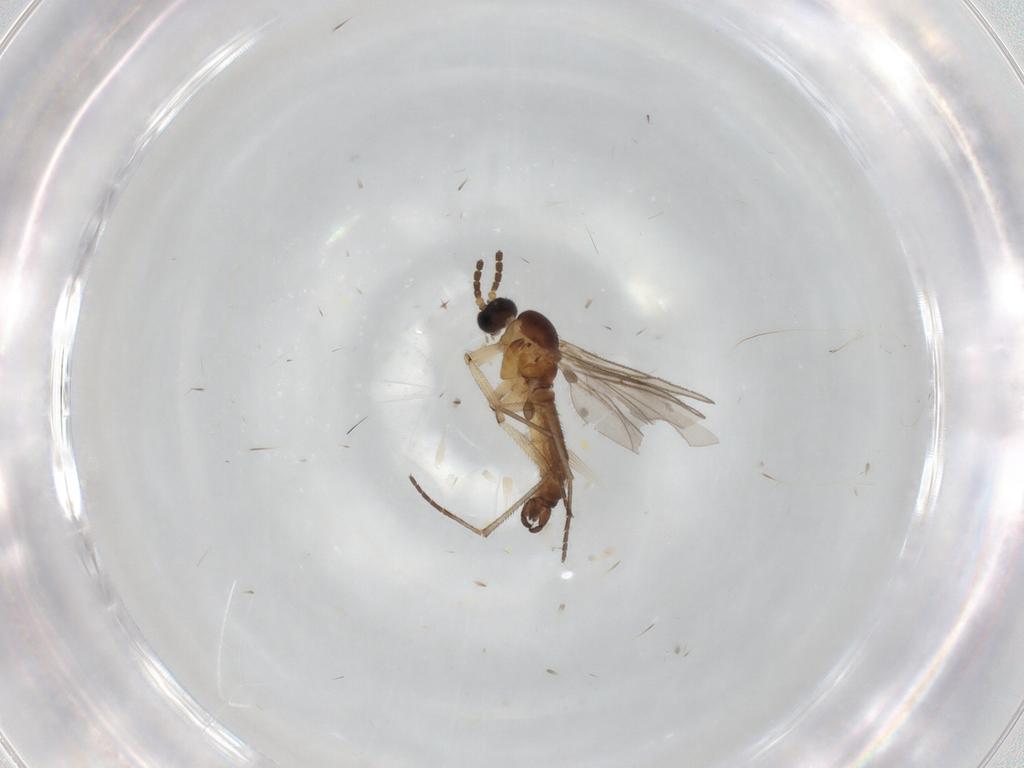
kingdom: Animalia
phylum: Arthropoda
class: Insecta
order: Diptera
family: Sciaridae
